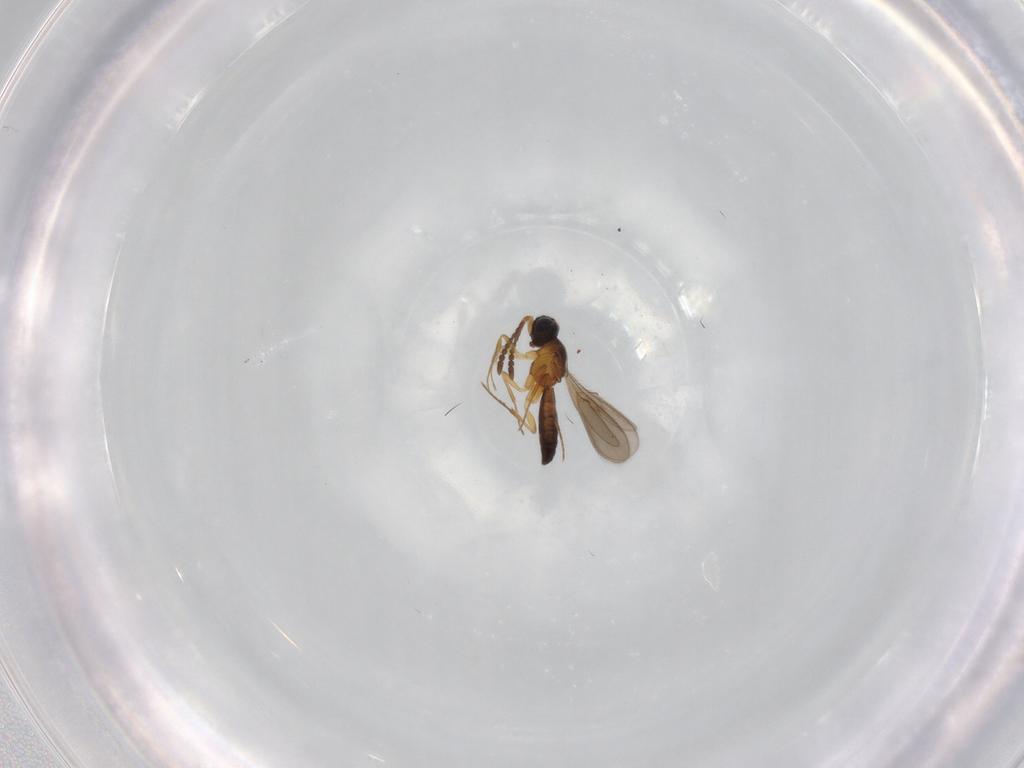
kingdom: Animalia
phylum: Arthropoda
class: Insecta
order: Hymenoptera
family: Scelionidae
